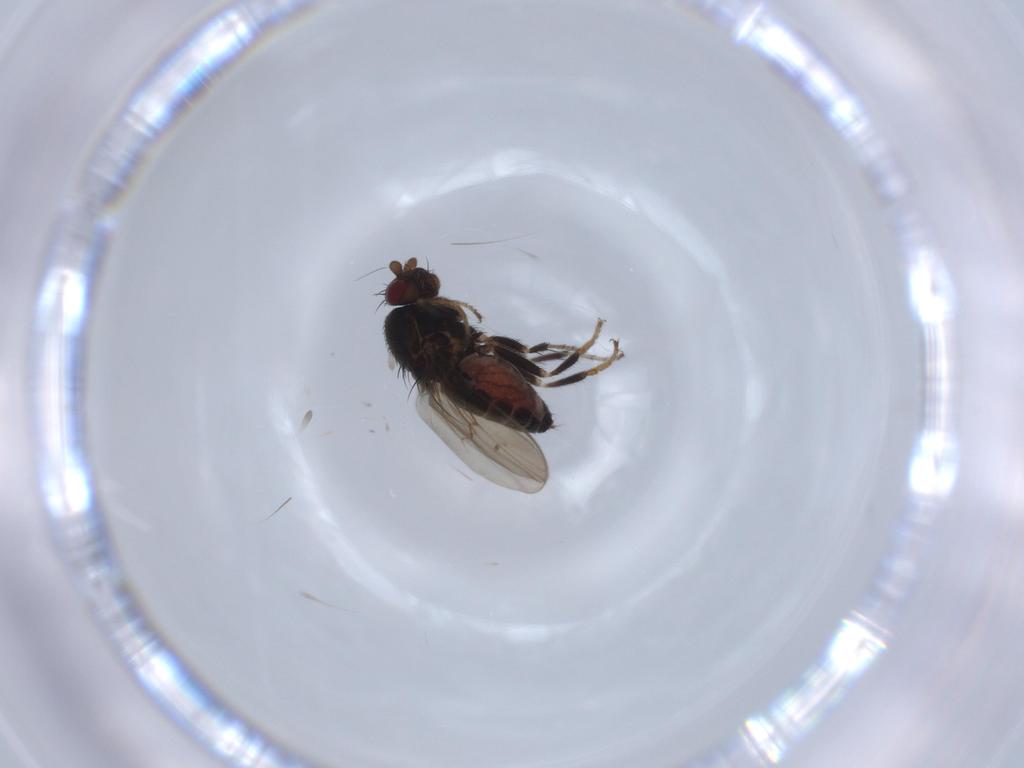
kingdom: Animalia
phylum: Arthropoda
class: Insecta
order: Diptera
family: Sphaeroceridae
